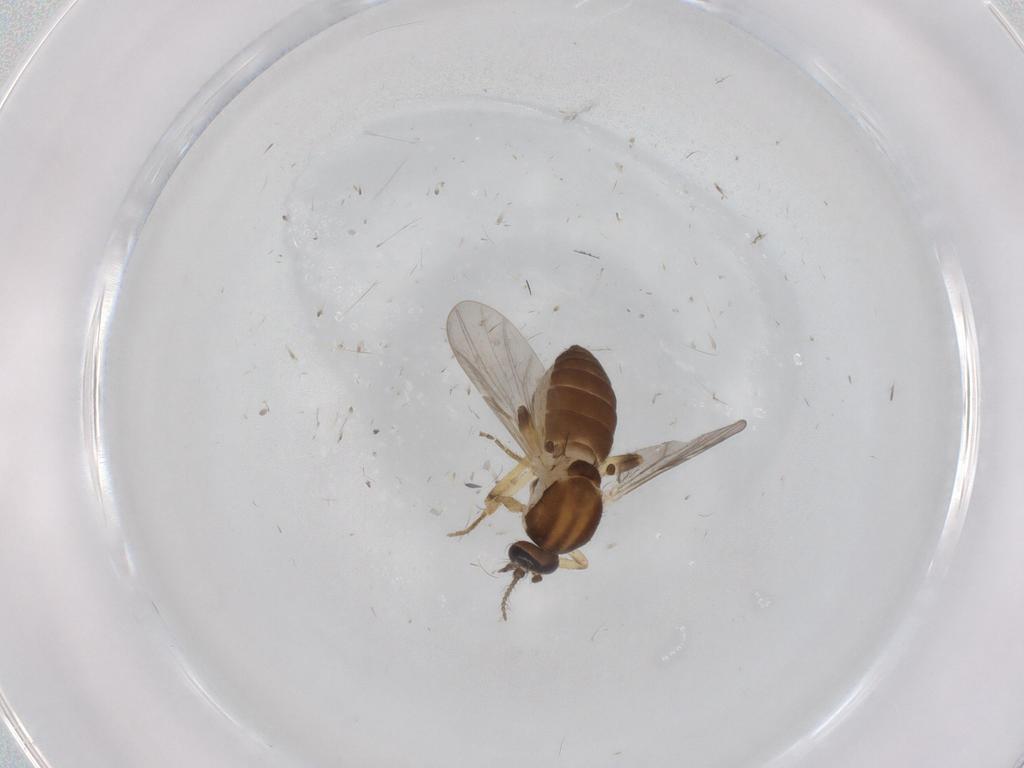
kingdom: Animalia
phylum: Arthropoda
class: Insecta
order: Diptera
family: Ceratopogonidae
